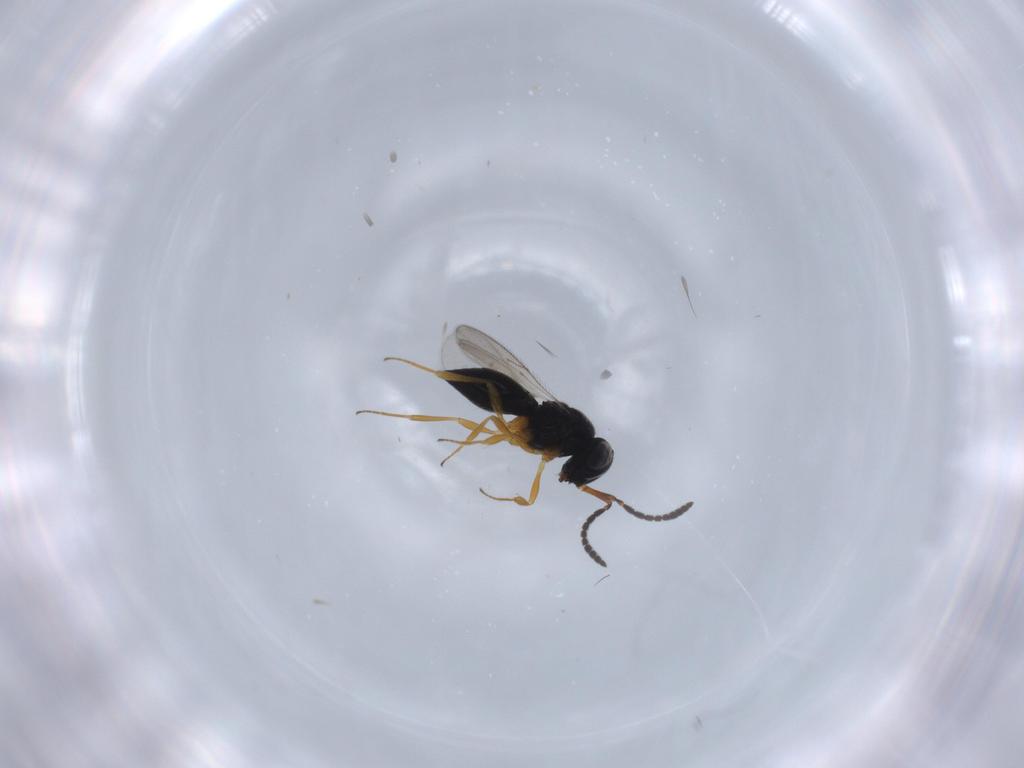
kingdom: Animalia
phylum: Arthropoda
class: Insecta
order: Hymenoptera
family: Scelionidae
